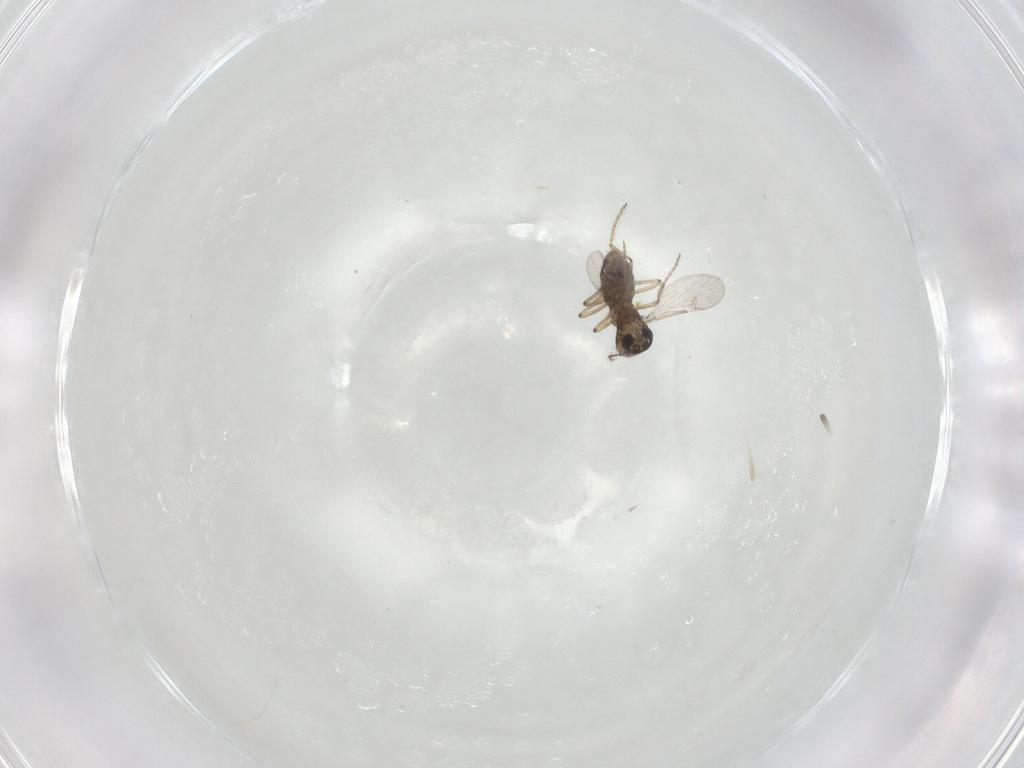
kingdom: Animalia
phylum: Arthropoda
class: Insecta
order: Diptera
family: Ceratopogonidae
